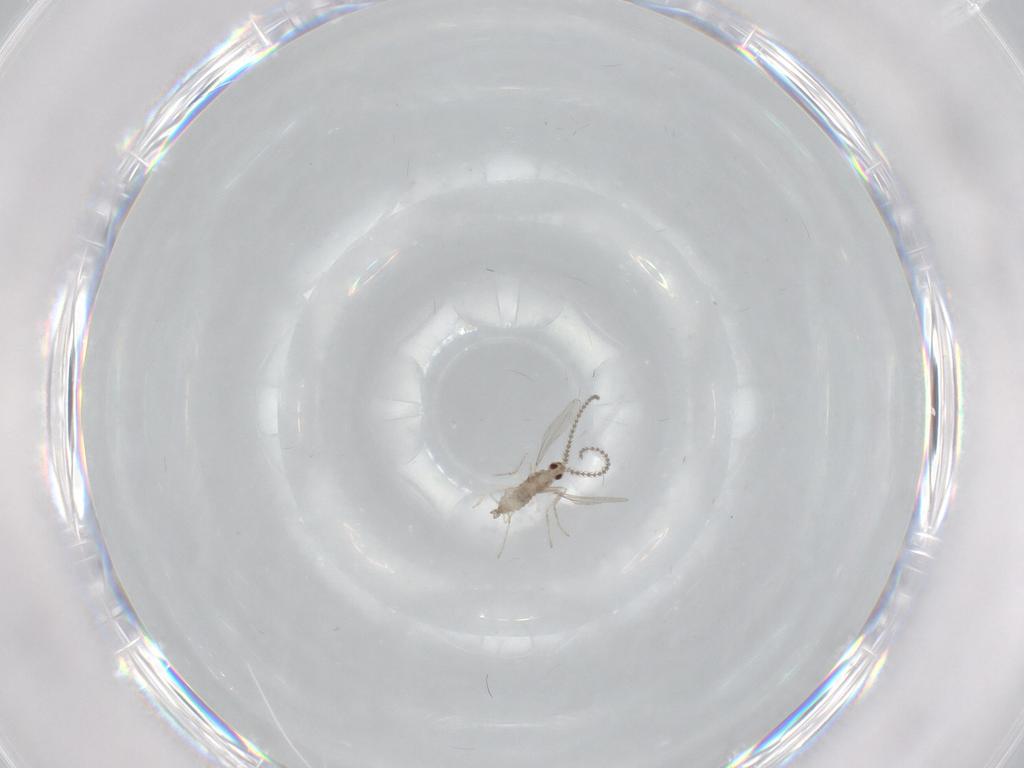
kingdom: Animalia
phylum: Arthropoda
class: Insecta
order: Diptera
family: Cecidomyiidae
